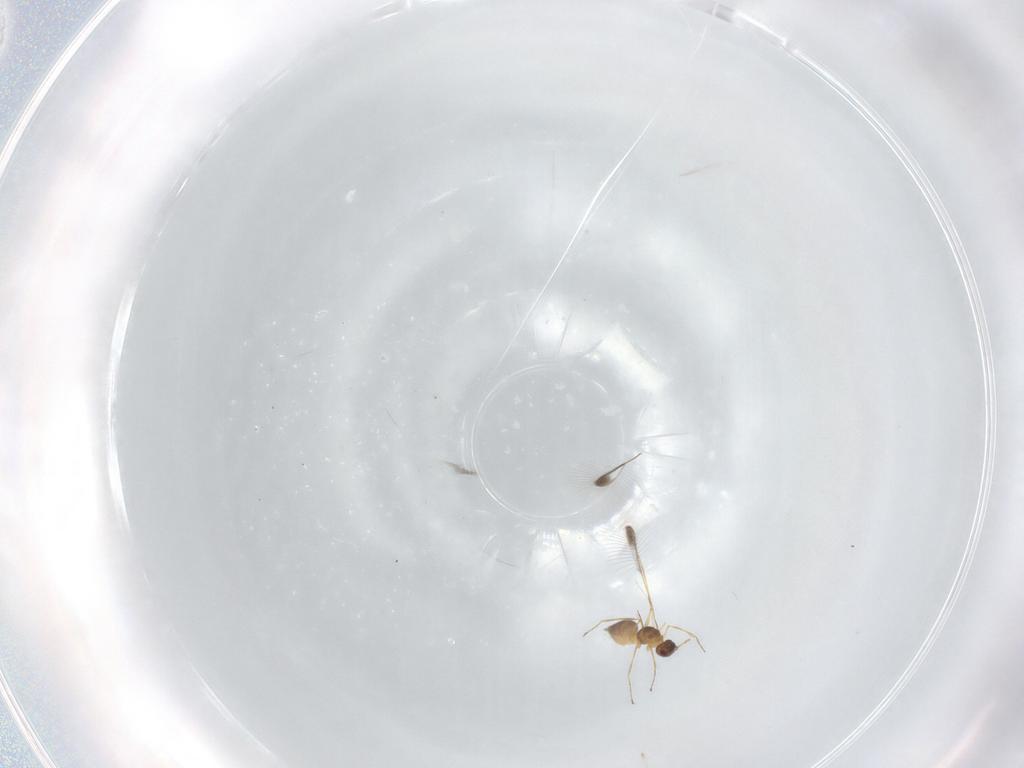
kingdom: Animalia
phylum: Arthropoda
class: Insecta
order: Hymenoptera
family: Mymaridae
